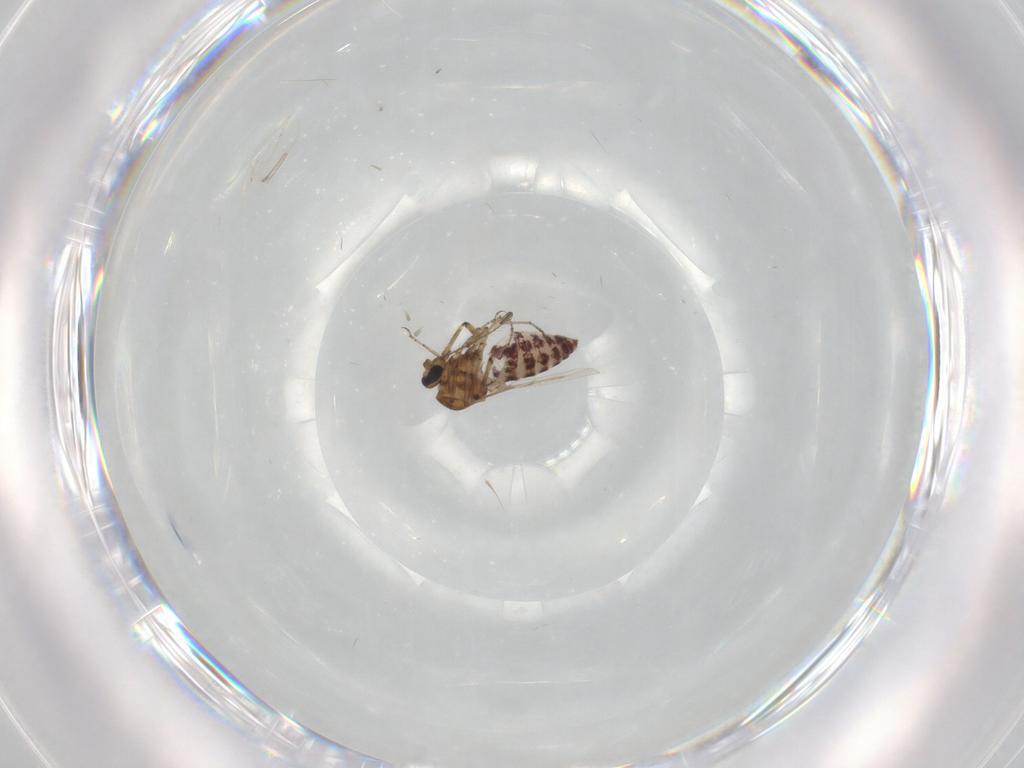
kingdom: Animalia
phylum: Arthropoda
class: Insecta
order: Diptera
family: Ceratopogonidae
